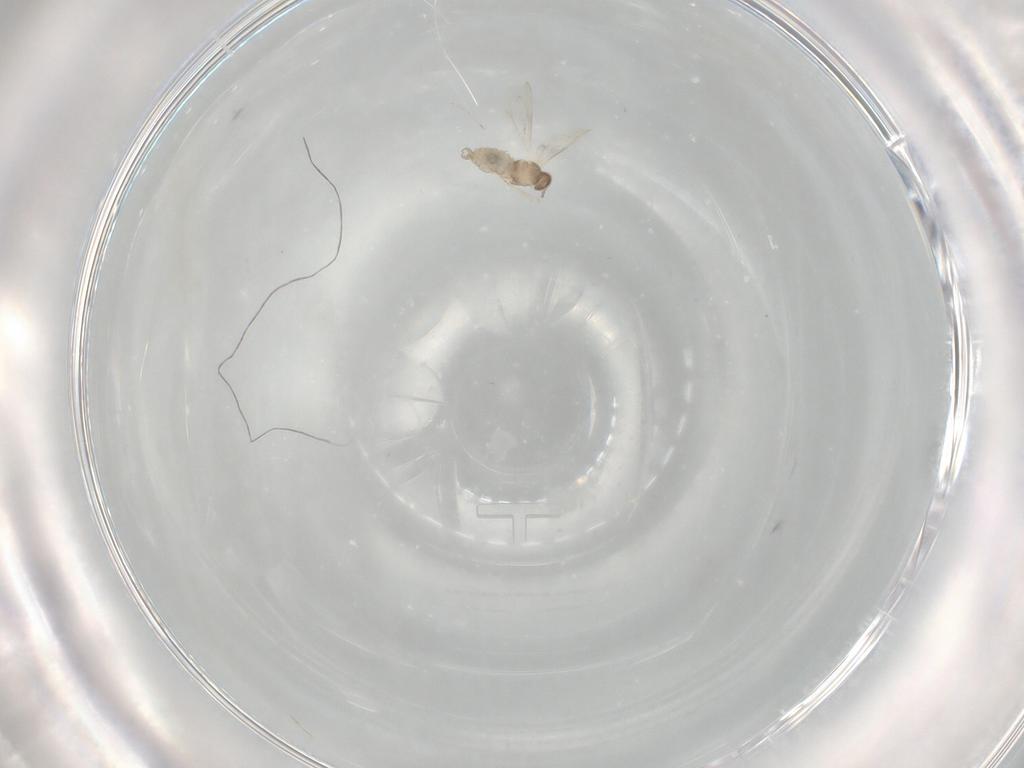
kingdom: Animalia
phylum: Arthropoda
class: Insecta
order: Diptera
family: Cecidomyiidae
